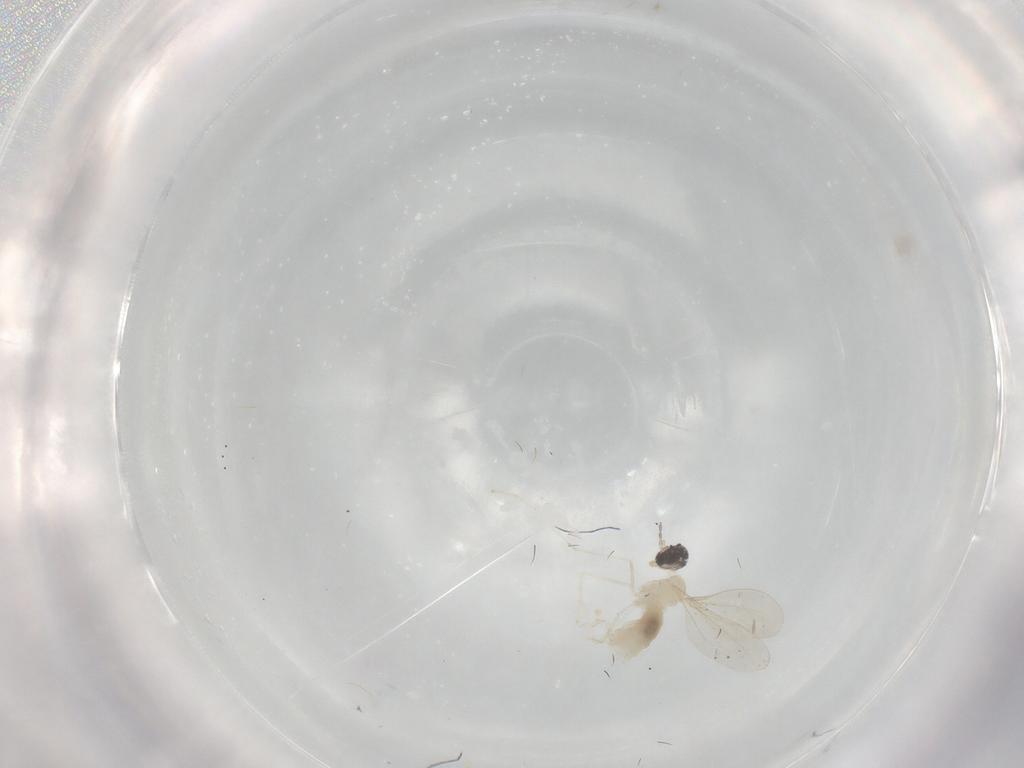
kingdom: Animalia
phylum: Arthropoda
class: Insecta
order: Diptera
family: Cecidomyiidae
